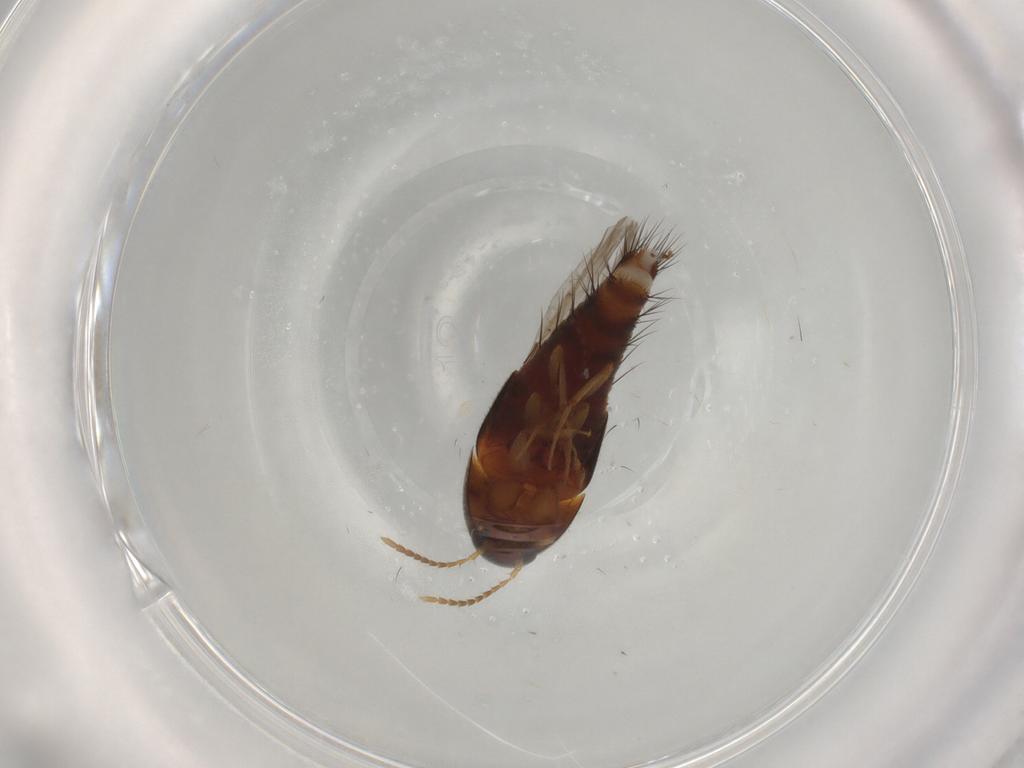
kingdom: Animalia
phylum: Arthropoda
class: Insecta
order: Coleoptera
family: Staphylinidae
